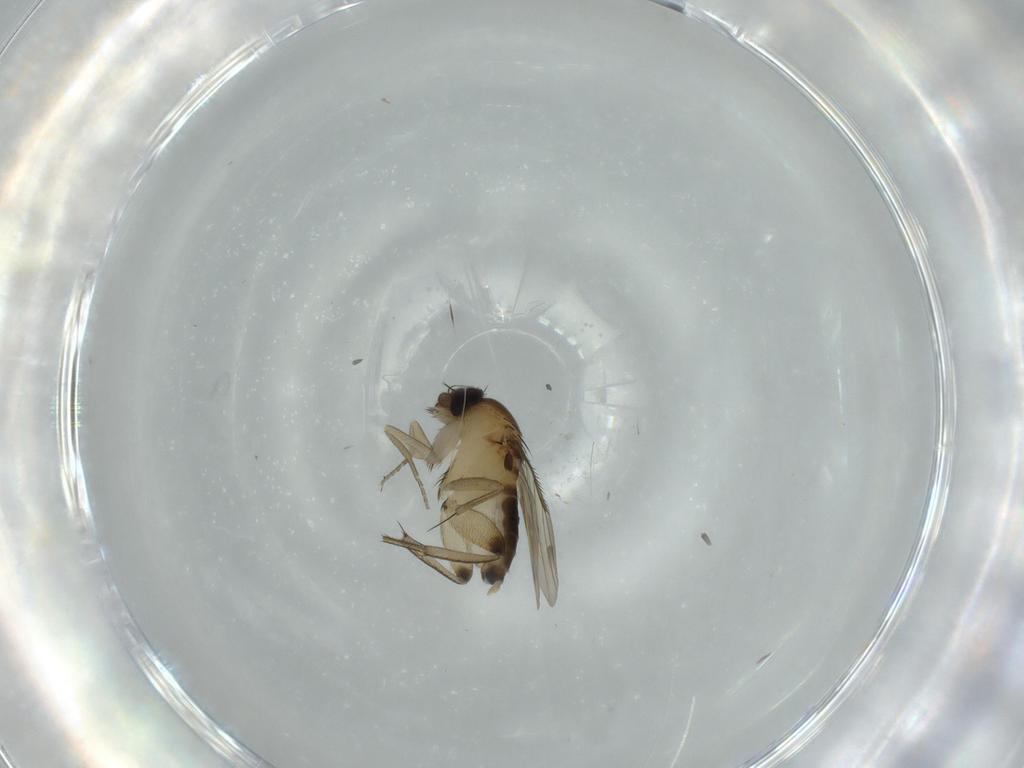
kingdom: Animalia
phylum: Arthropoda
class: Insecta
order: Diptera
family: Phoridae
